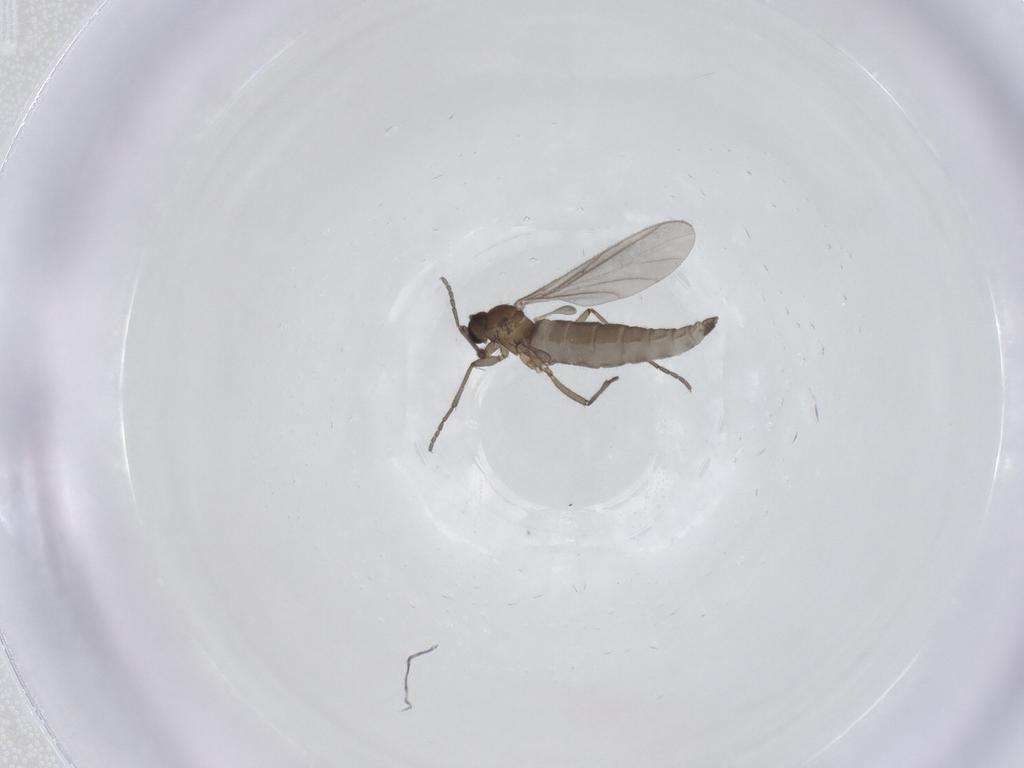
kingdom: Animalia
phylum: Arthropoda
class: Insecta
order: Diptera
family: Sciaridae
